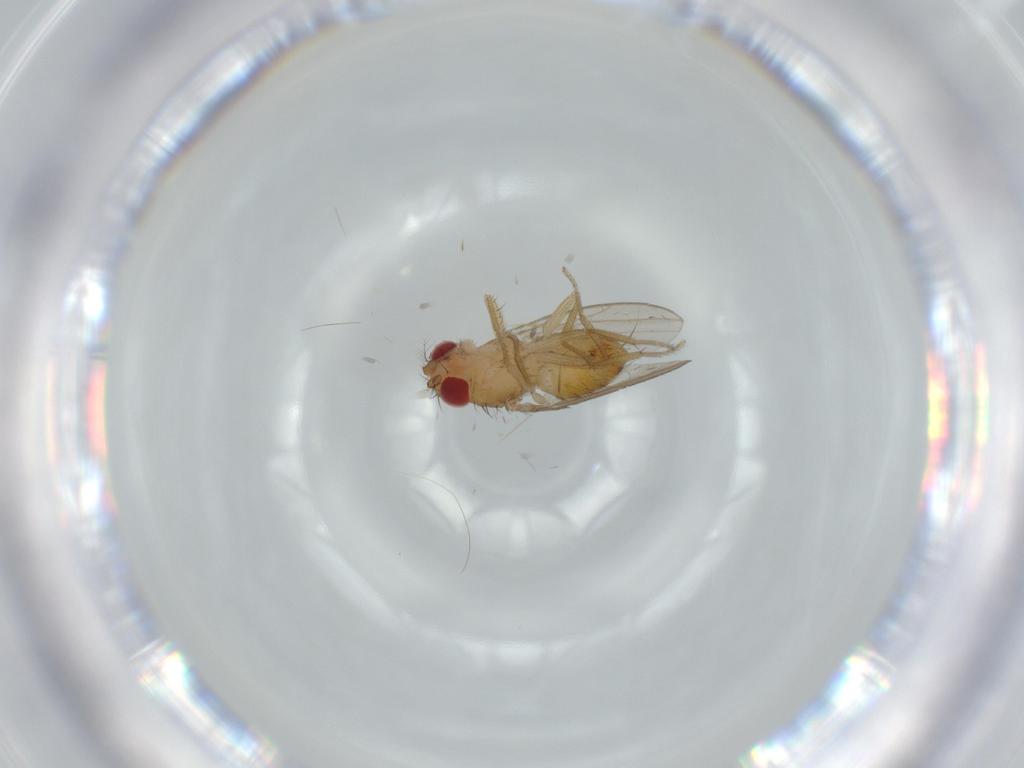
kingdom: Animalia
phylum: Arthropoda
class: Insecta
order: Diptera
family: Drosophilidae
